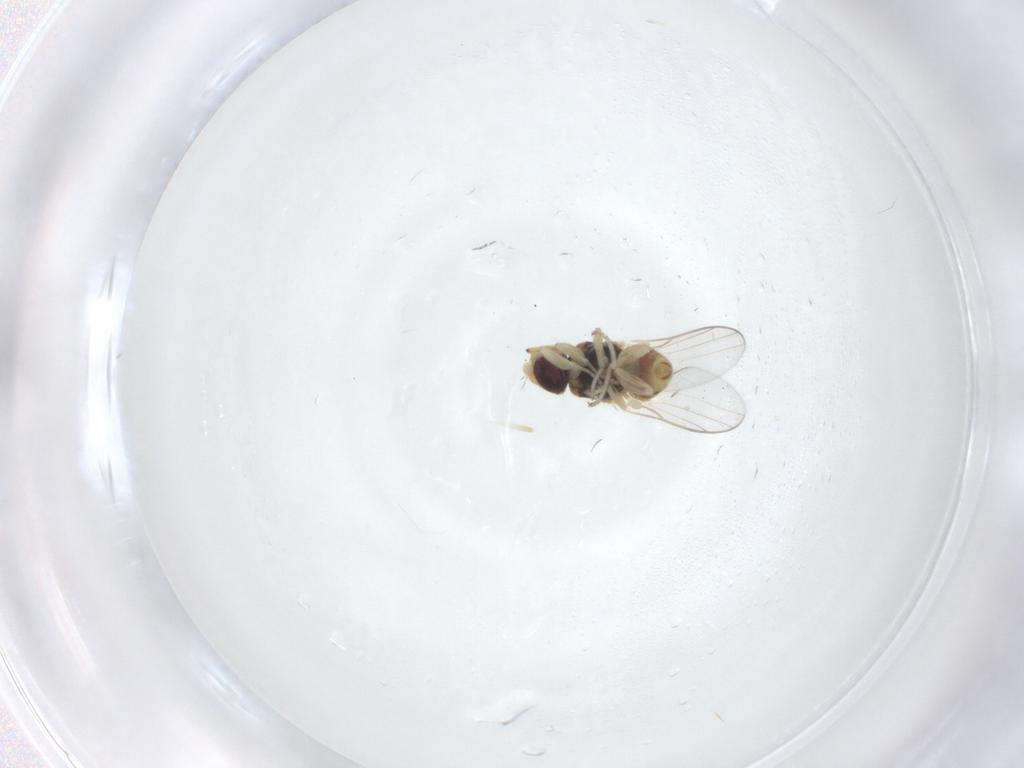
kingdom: Animalia
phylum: Arthropoda
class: Insecta
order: Diptera
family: Chloropidae
